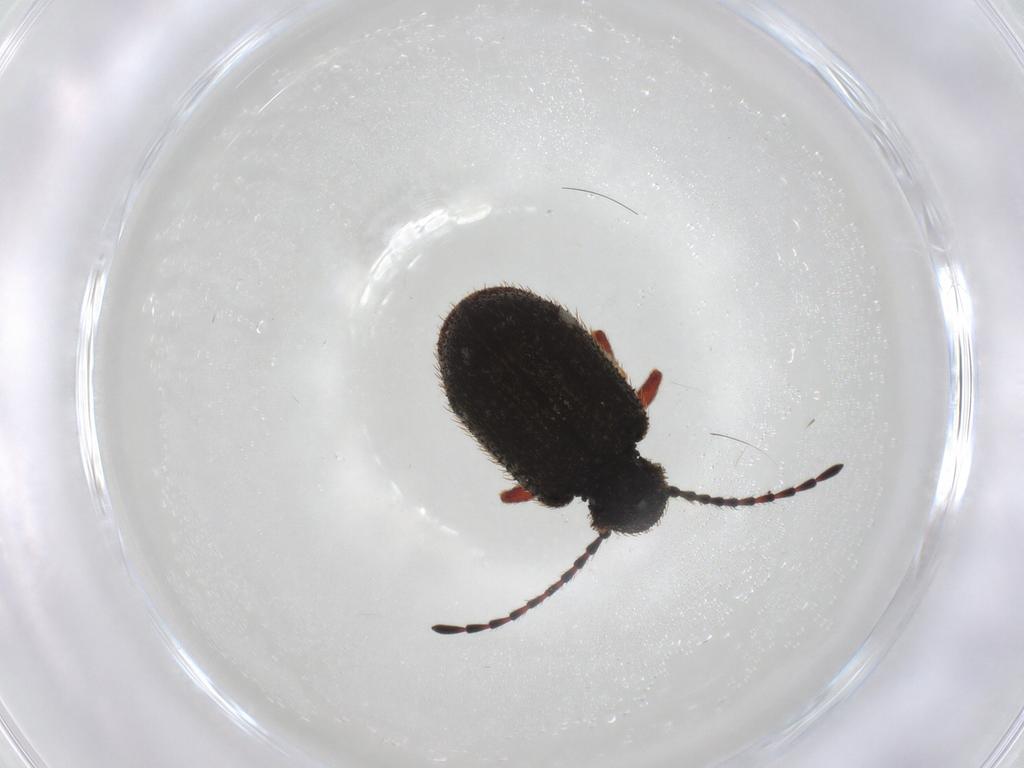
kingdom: Animalia
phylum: Arthropoda
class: Insecta
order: Coleoptera
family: Ptinidae
